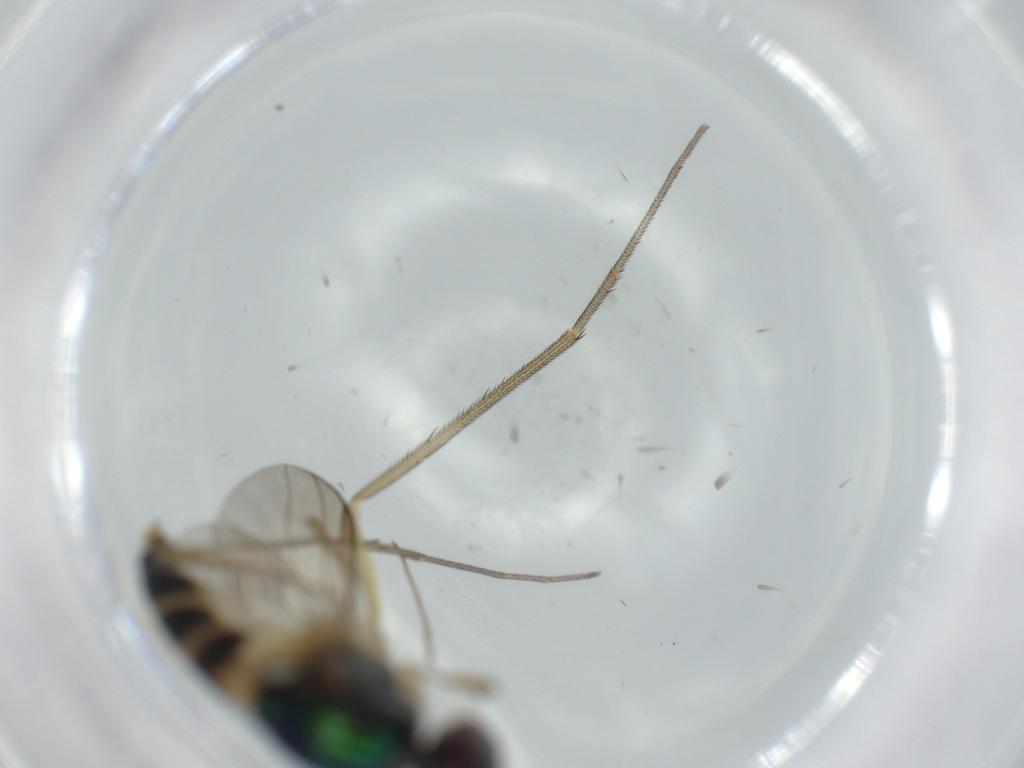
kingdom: Animalia
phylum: Arthropoda
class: Insecta
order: Diptera
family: Dolichopodidae
